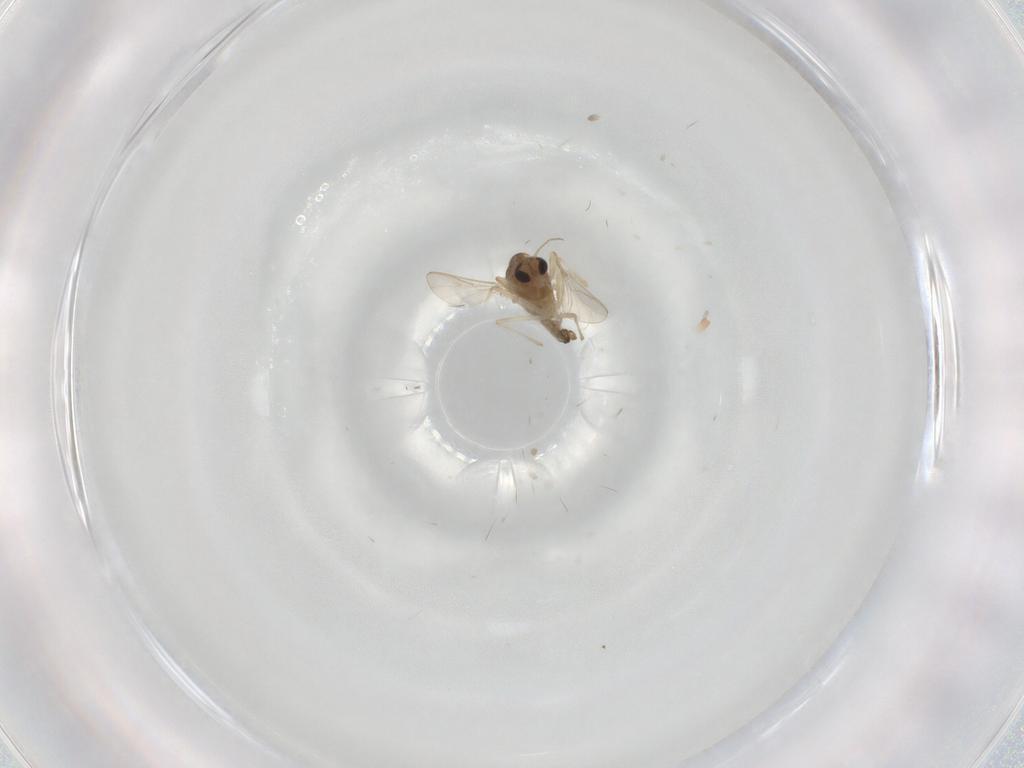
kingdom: Animalia
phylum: Arthropoda
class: Insecta
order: Diptera
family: Chironomidae
